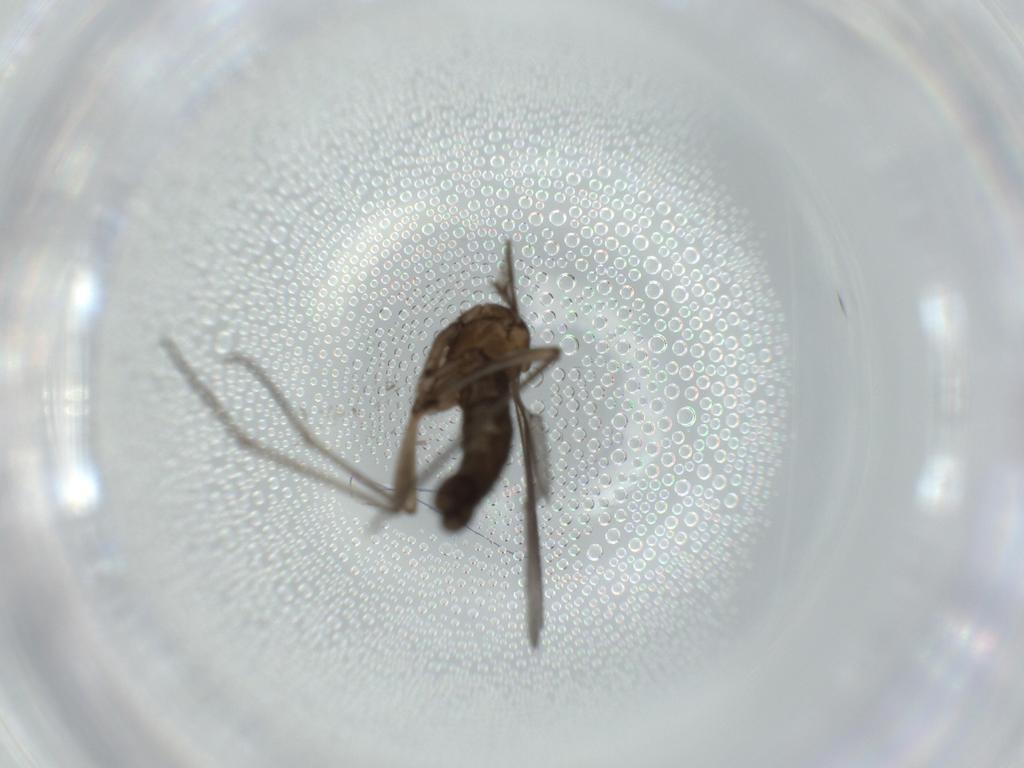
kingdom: Animalia
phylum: Arthropoda
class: Insecta
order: Diptera
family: Sciaridae
